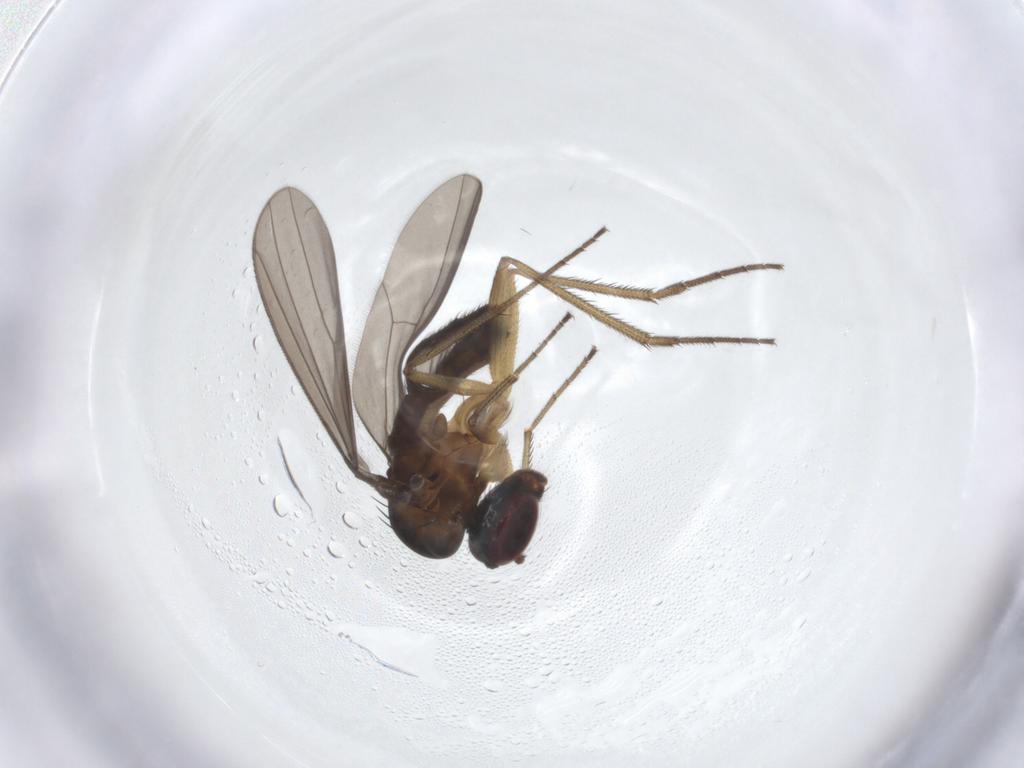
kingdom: Animalia
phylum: Arthropoda
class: Insecta
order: Diptera
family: Dolichopodidae
